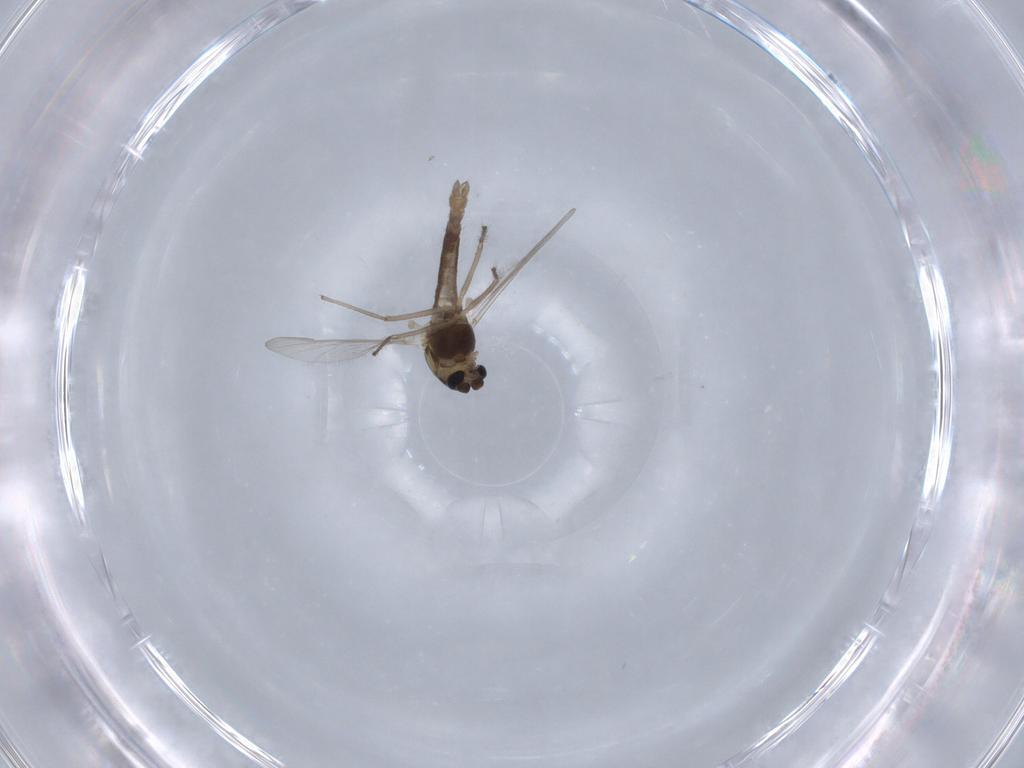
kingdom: Animalia
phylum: Arthropoda
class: Insecta
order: Diptera
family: Chironomidae
